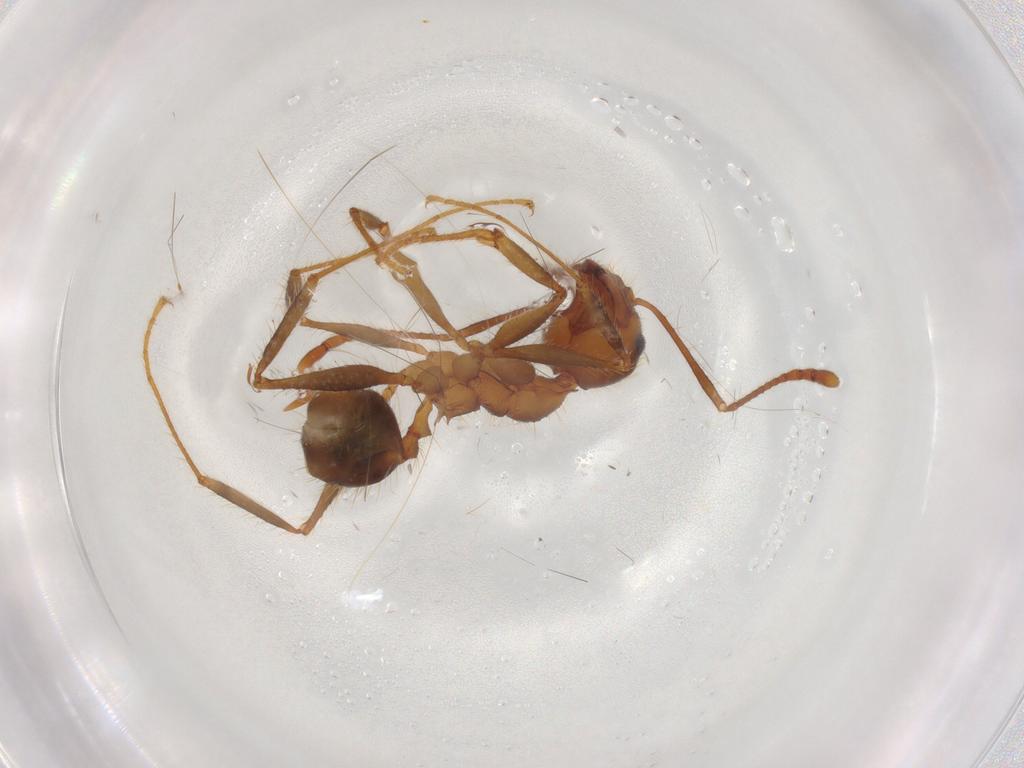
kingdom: Animalia
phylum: Arthropoda
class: Insecta
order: Hymenoptera
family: Formicidae
